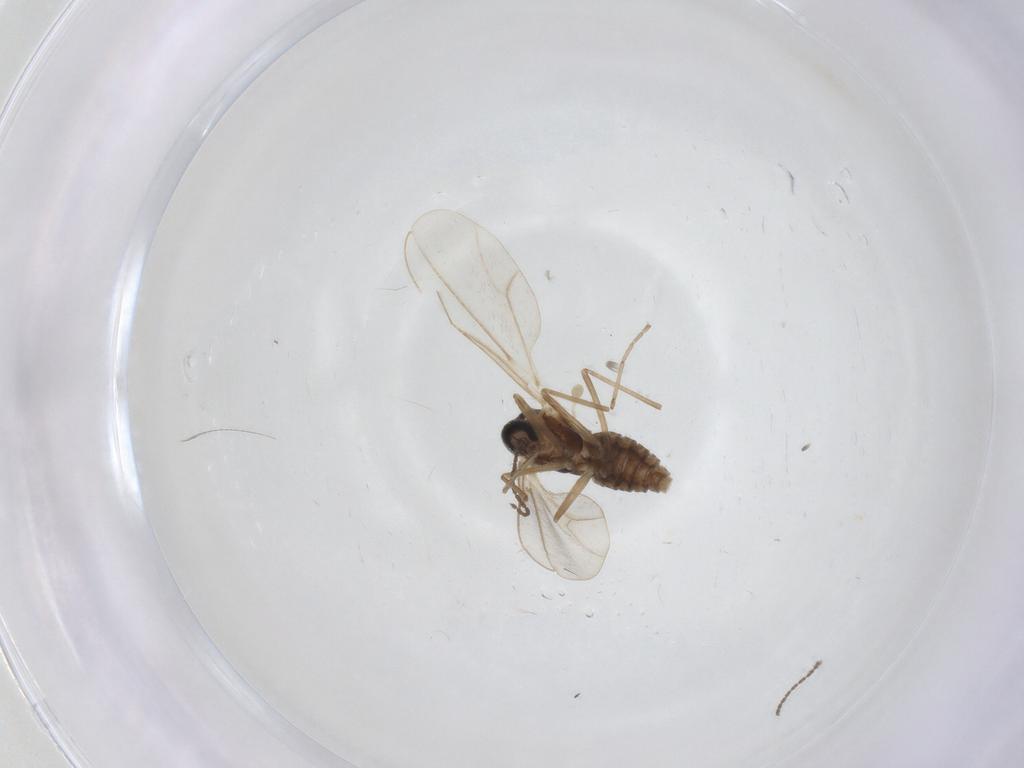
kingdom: Animalia
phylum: Arthropoda
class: Insecta
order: Diptera
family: Cecidomyiidae
